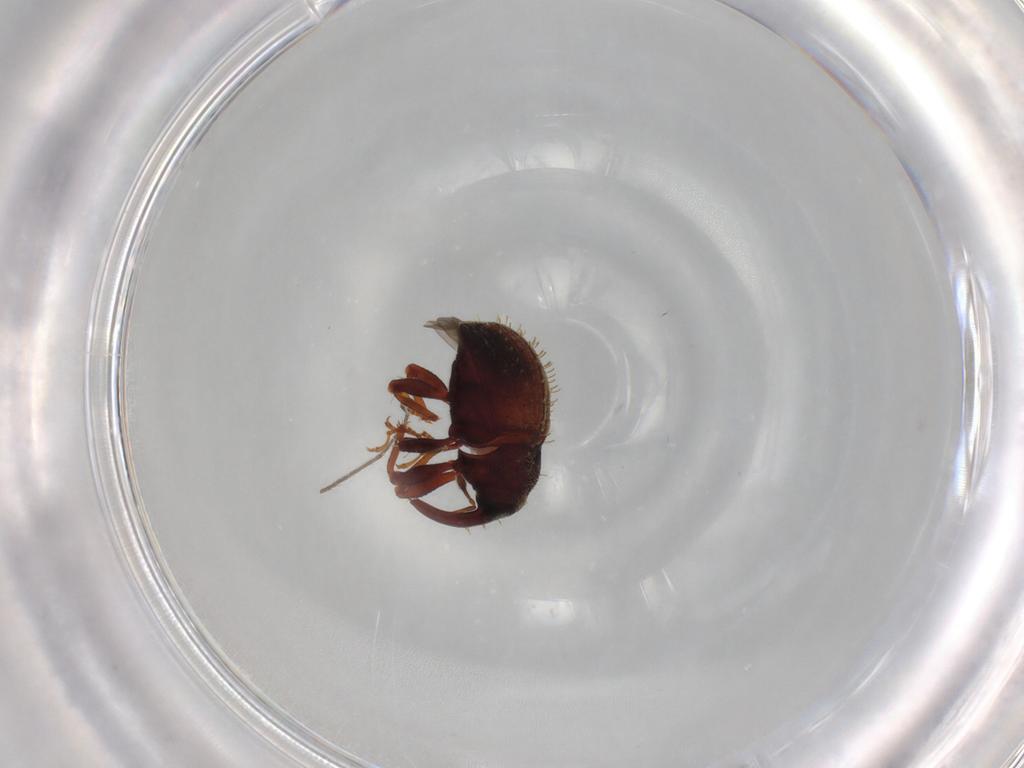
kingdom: Animalia
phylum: Arthropoda
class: Insecta
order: Coleoptera
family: Curculionidae
